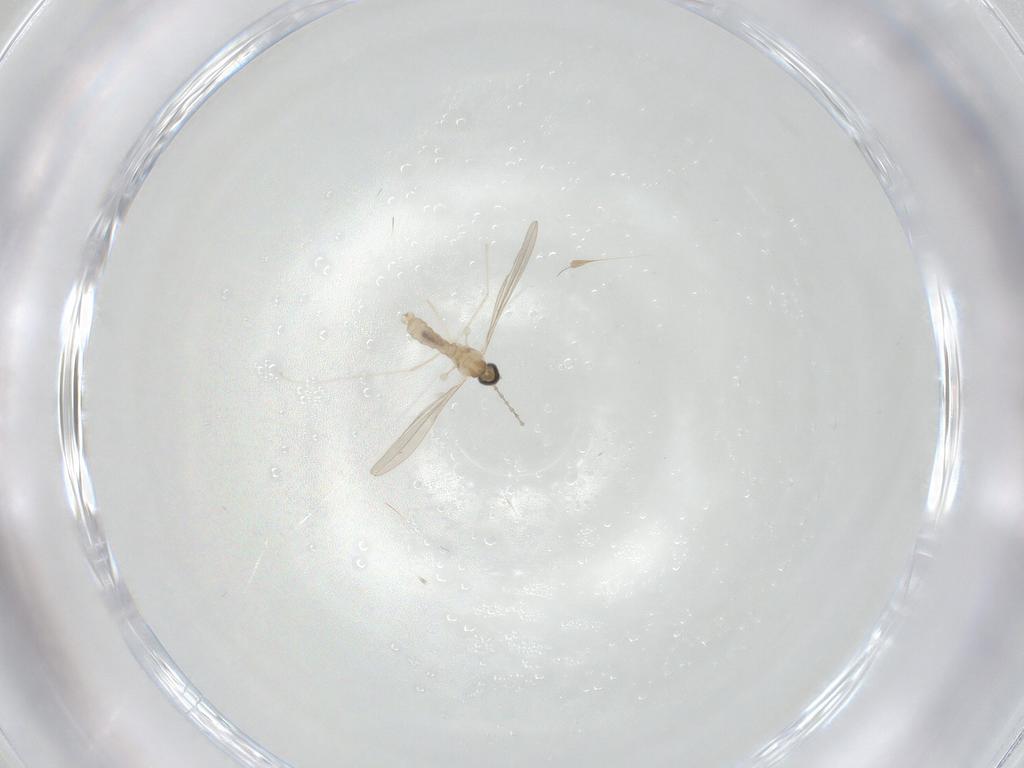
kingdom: Animalia
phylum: Arthropoda
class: Insecta
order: Diptera
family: Cecidomyiidae
